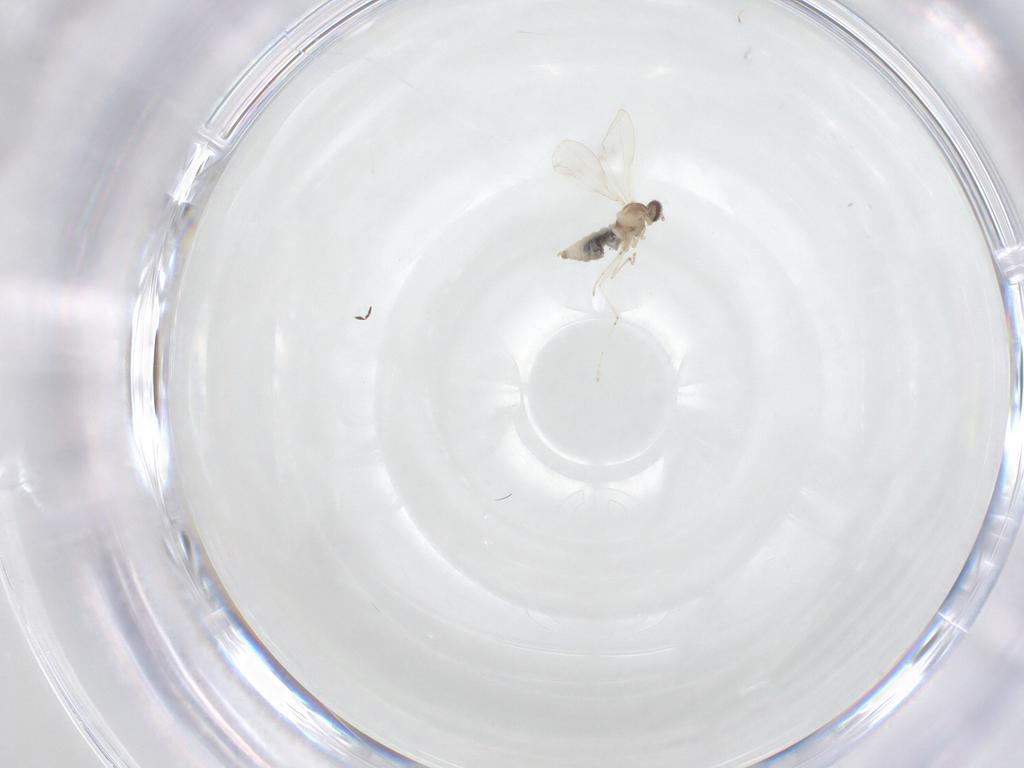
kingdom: Animalia
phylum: Arthropoda
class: Insecta
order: Diptera
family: Cecidomyiidae
